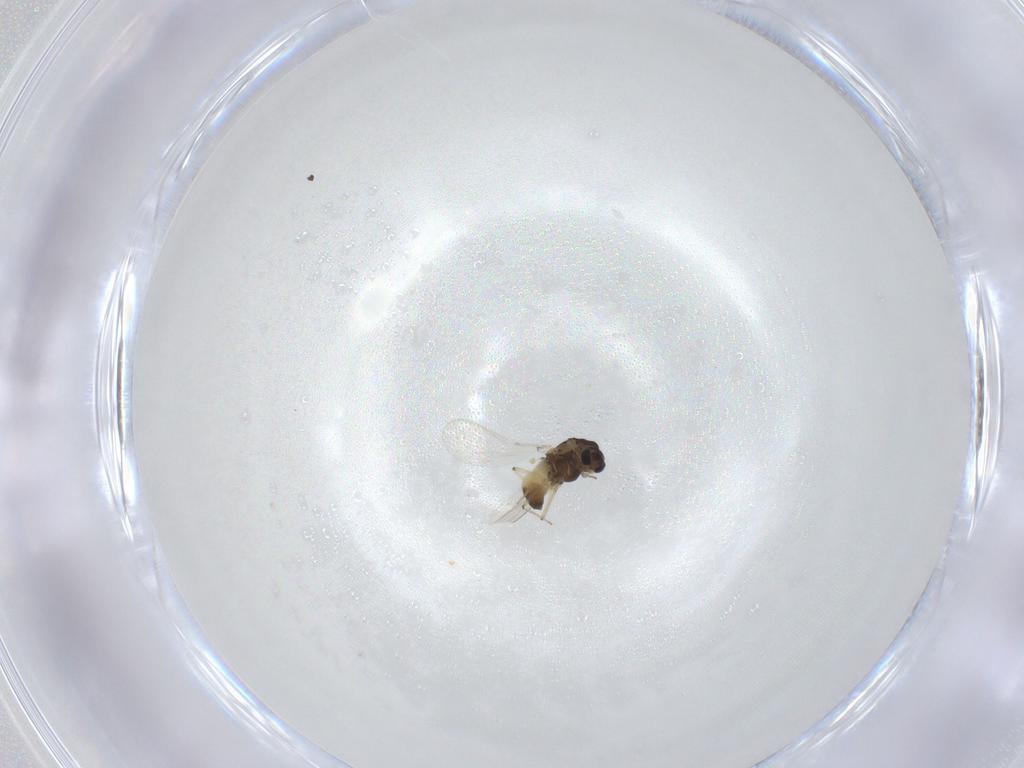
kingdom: Animalia
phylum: Arthropoda
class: Insecta
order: Diptera
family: Chironomidae
